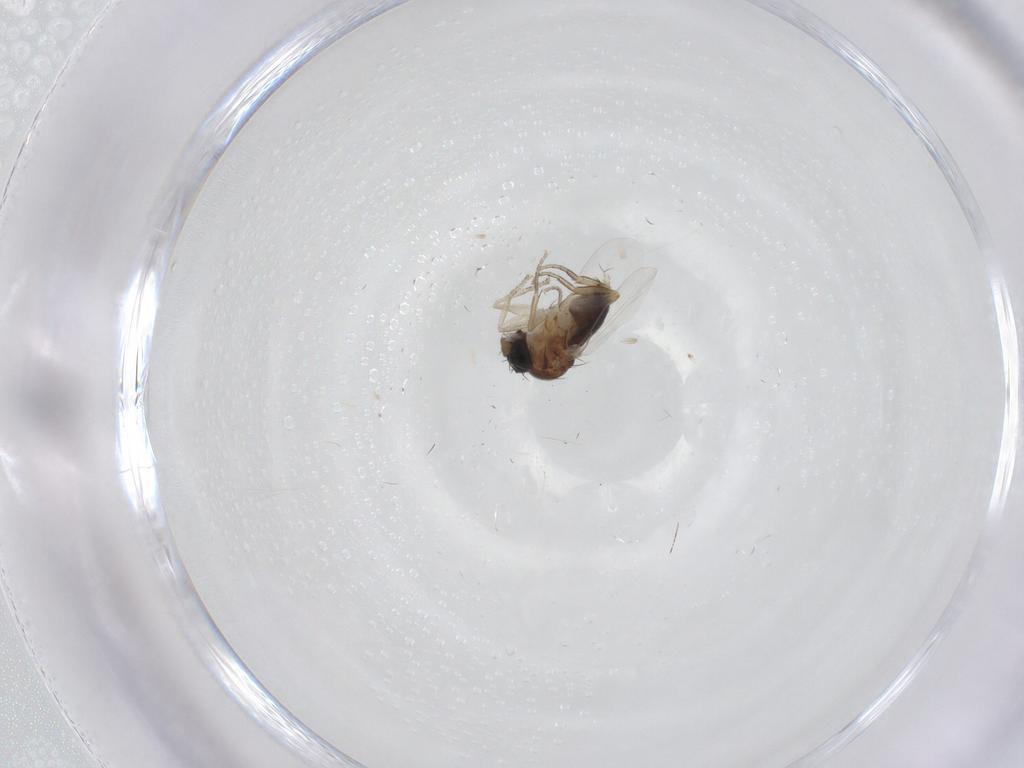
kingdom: Animalia
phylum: Arthropoda
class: Insecta
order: Diptera
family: Phoridae
